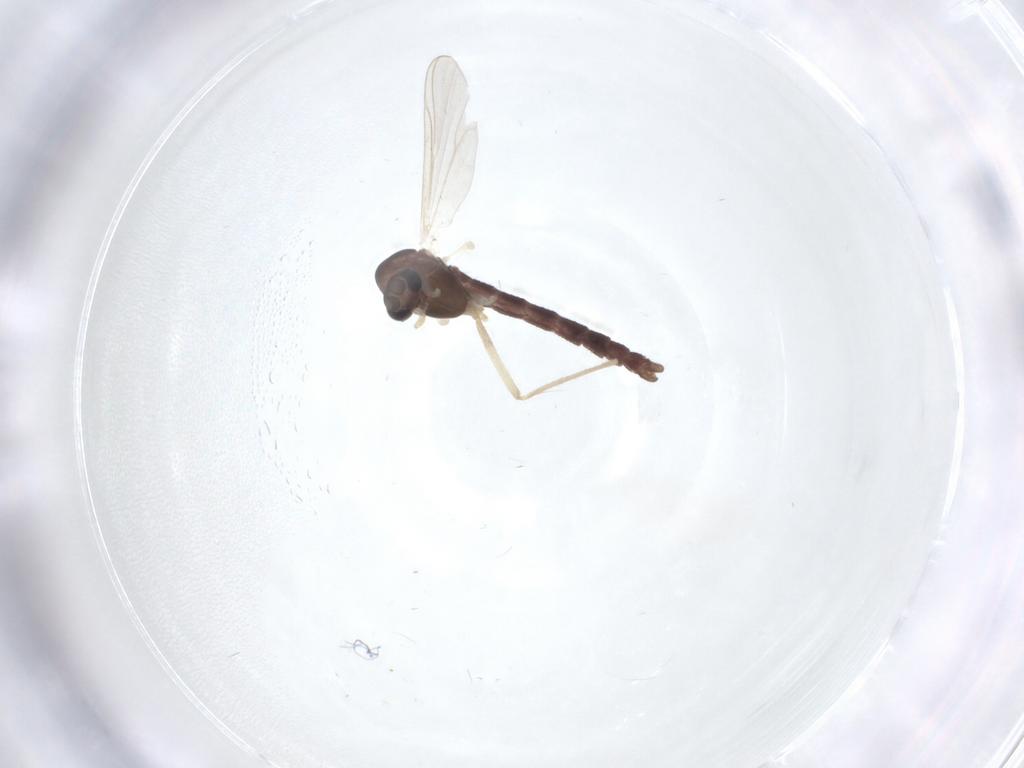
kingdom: Animalia
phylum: Arthropoda
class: Insecta
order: Diptera
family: Chironomidae
